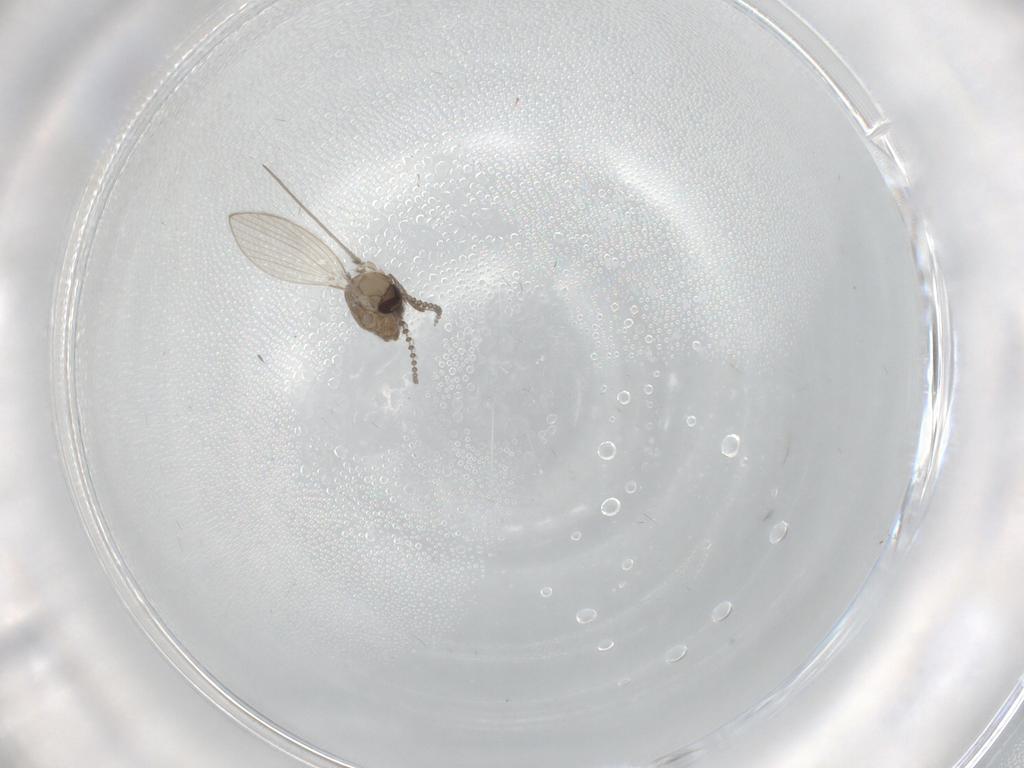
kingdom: Animalia
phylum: Arthropoda
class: Insecta
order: Diptera
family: Psychodidae
